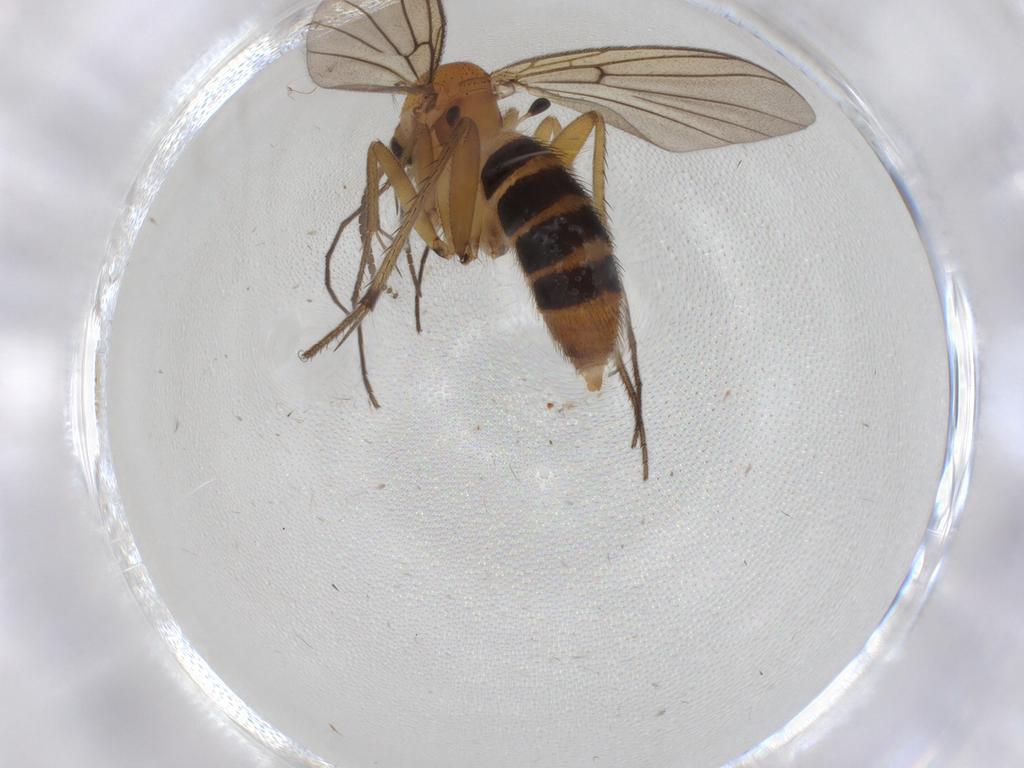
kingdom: Animalia
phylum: Arthropoda
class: Insecta
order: Diptera
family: Mycetophilidae
